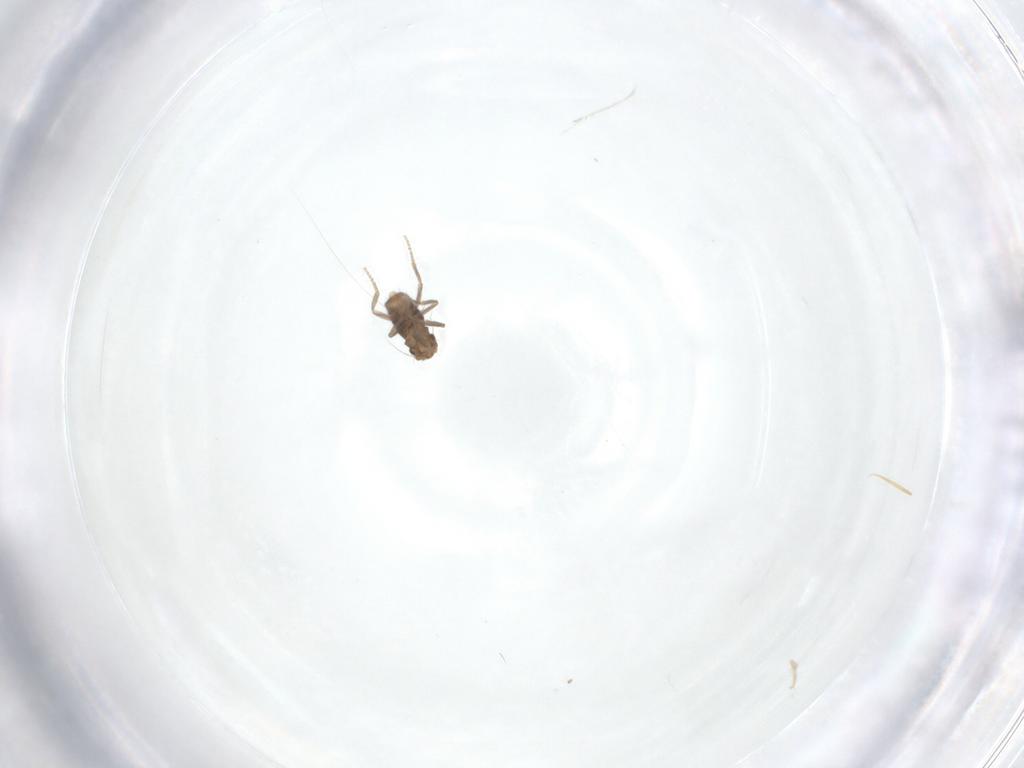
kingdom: Animalia
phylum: Arthropoda
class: Insecta
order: Diptera
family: Phoridae
